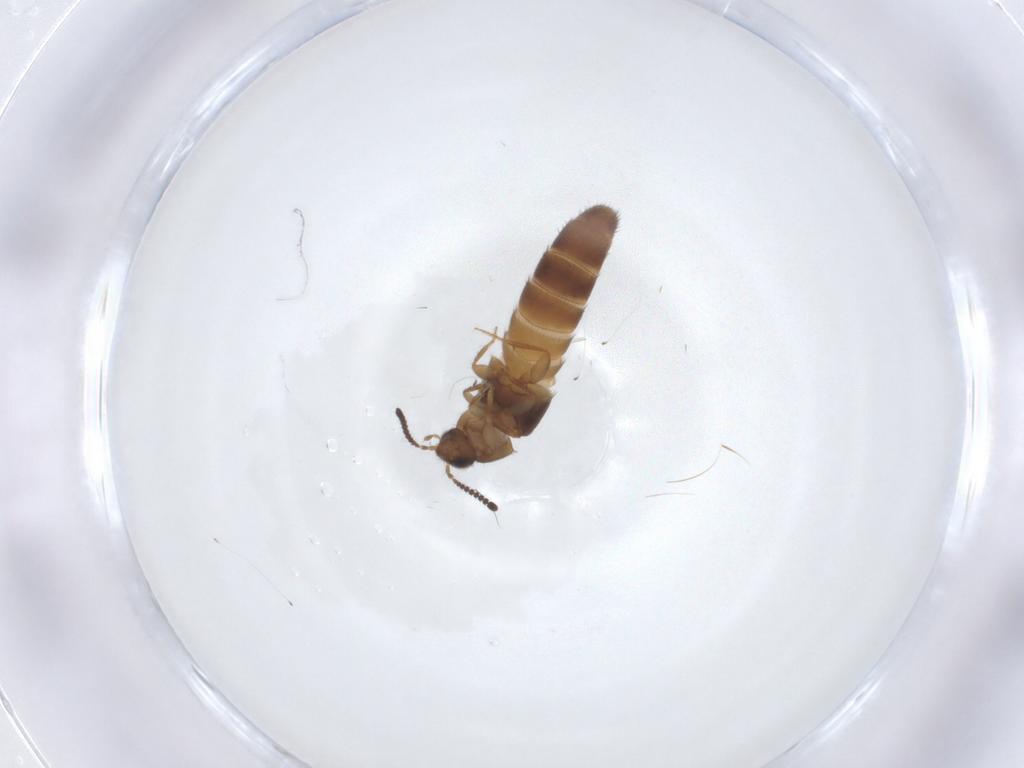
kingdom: Animalia
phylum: Arthropoda
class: Insecta
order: Coleoptera
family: Staphylinidae
